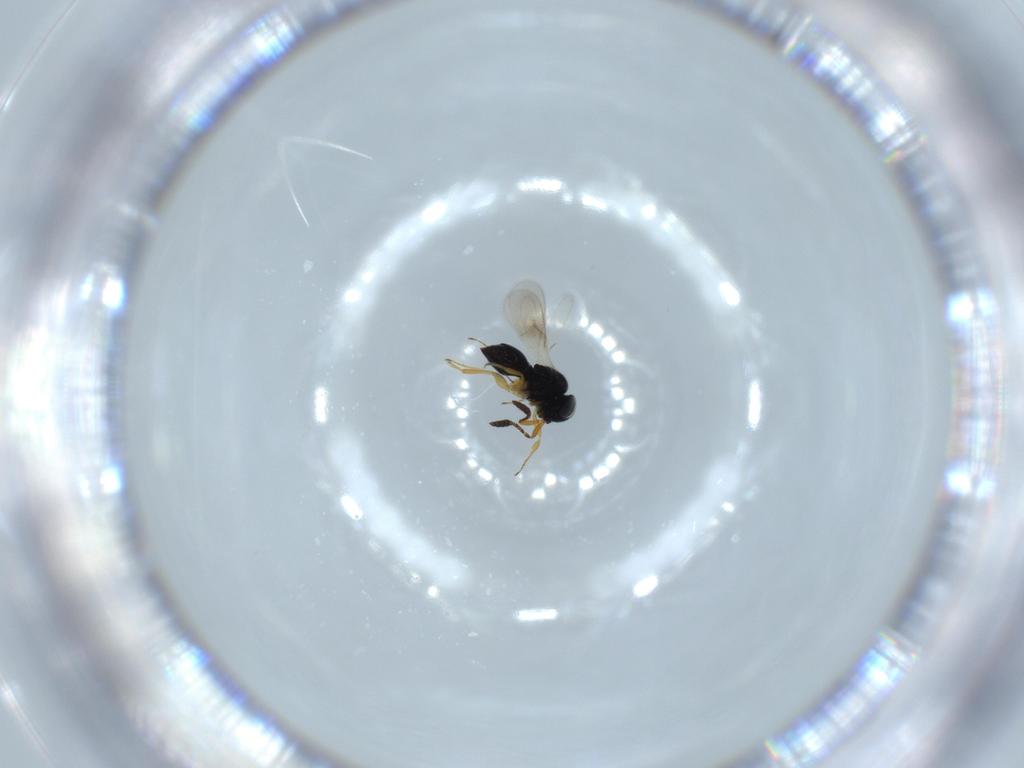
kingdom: Animalia
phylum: Arthropoda
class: Insecta
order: Hymenoptera
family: Scelionidae
